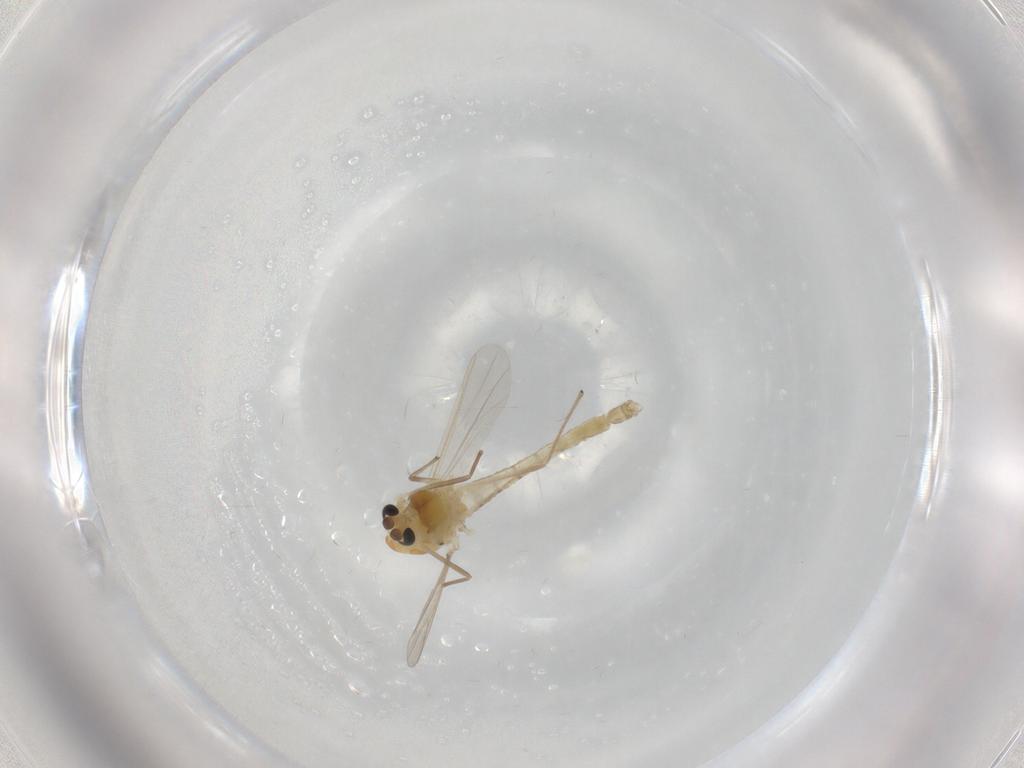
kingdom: Animalia
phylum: Arthropoda
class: Insecta
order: Diptera
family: Chironomidae
